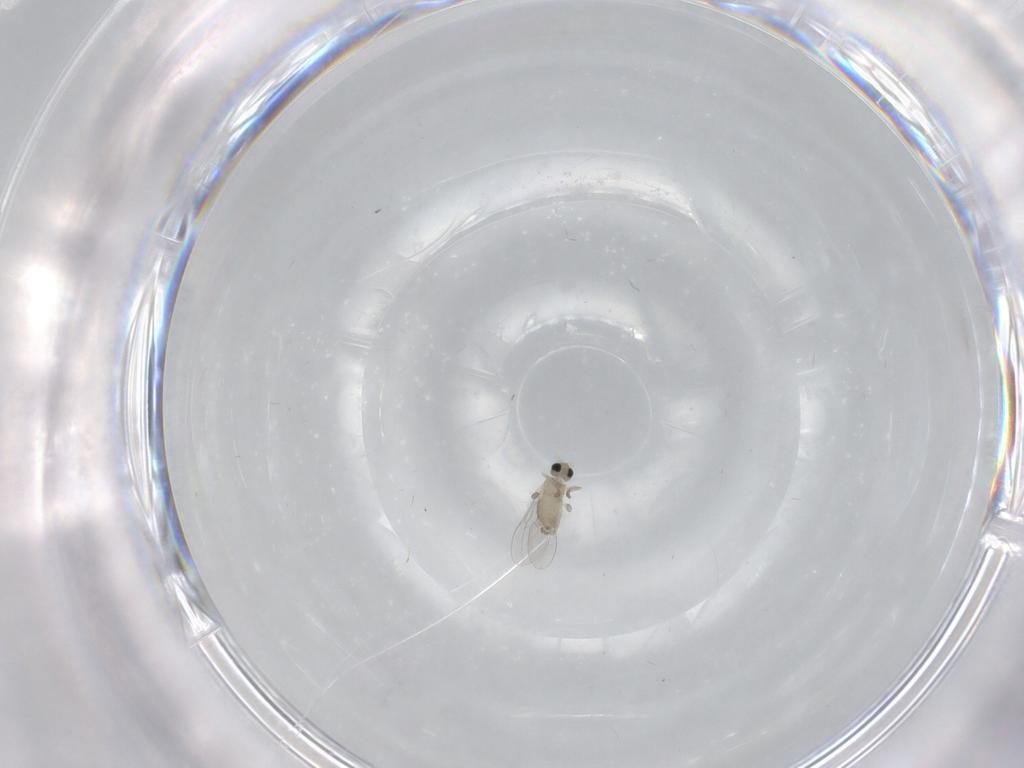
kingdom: Animalia
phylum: Arthropoda
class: Insecta
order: Diptera
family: Cecidomyiidae
